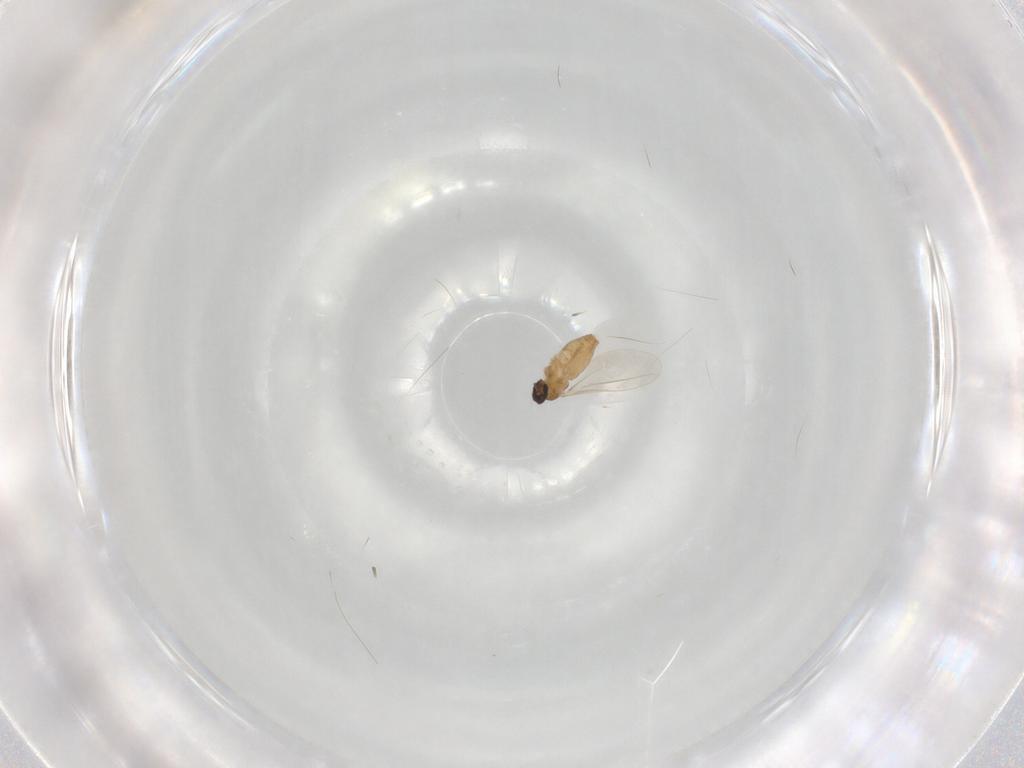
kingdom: Animalia
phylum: Arthropoda
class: Insecta
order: Diptera
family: Cecidomyiidae
